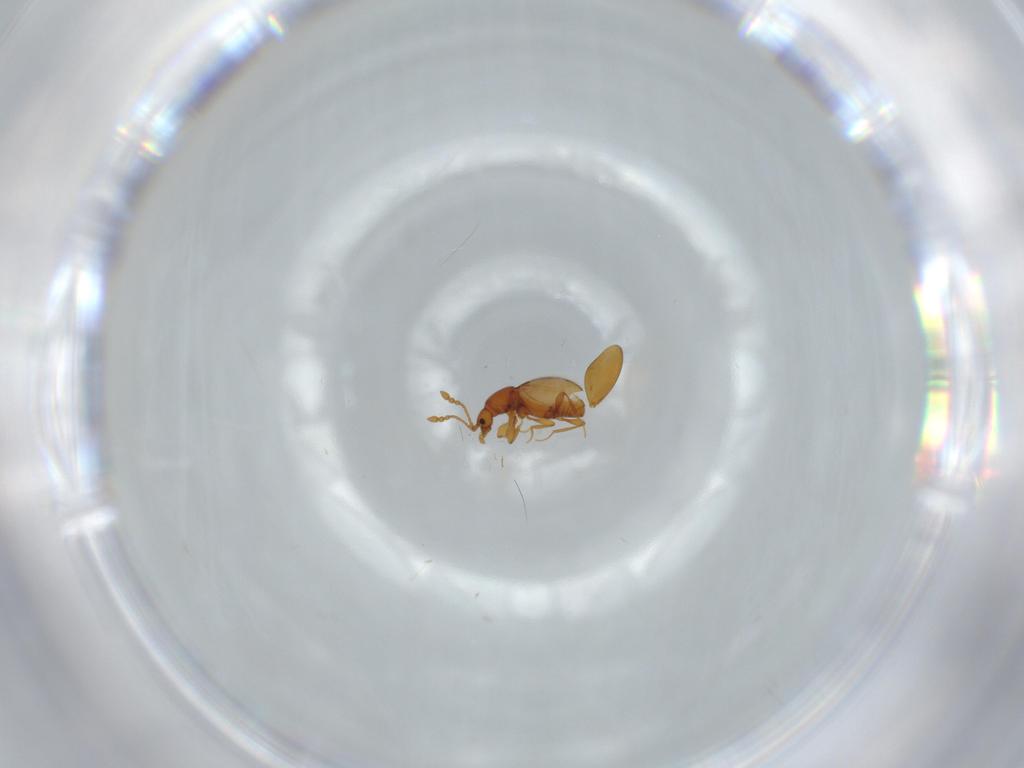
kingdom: Animalia
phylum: Arthropoda
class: Insecta
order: Coleoptera
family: Staphylinidae
